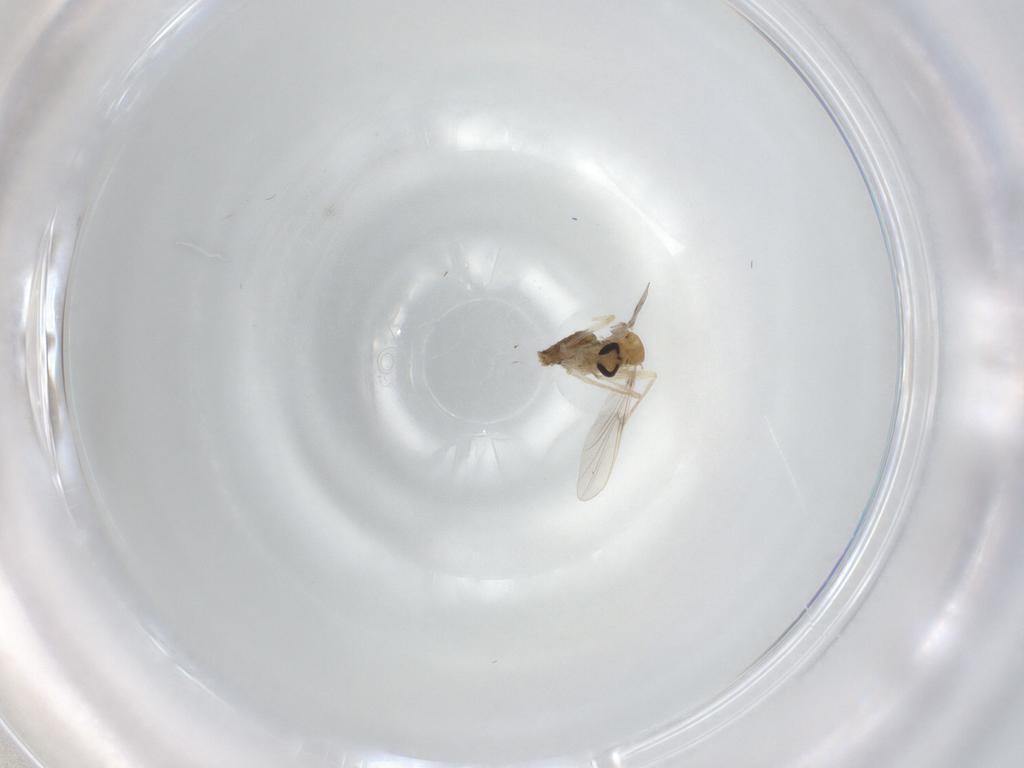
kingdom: Animalia
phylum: Arthropoda
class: Insecta
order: Diptera
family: Chironomidae
